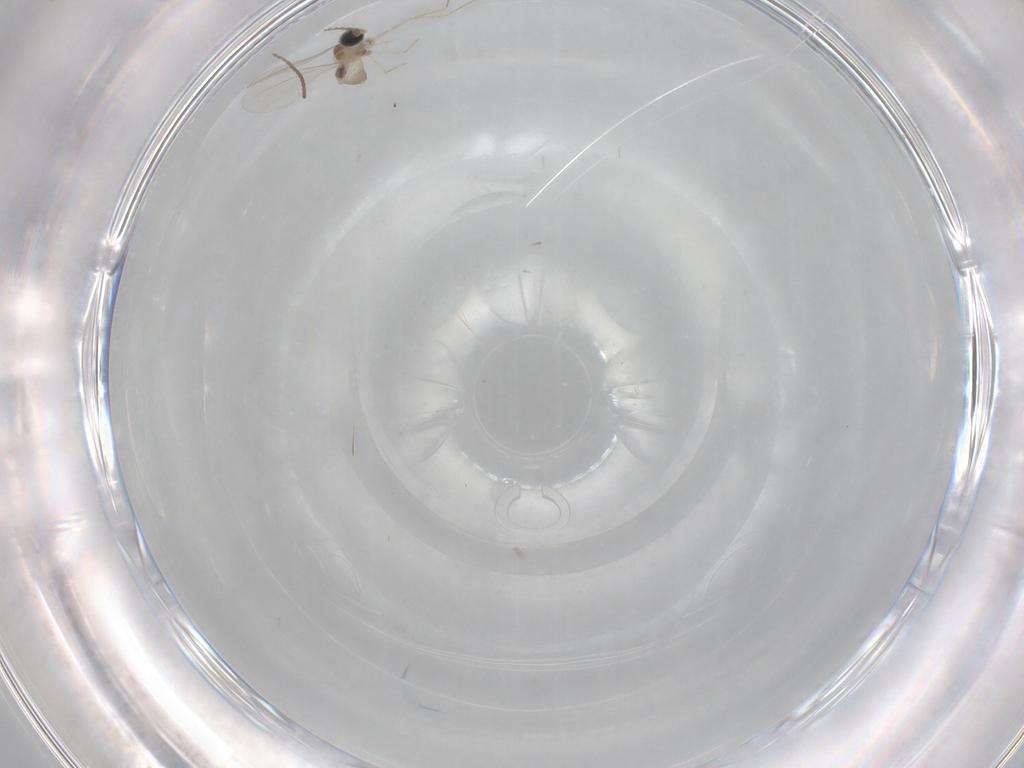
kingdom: Animalia
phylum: Arthropoda
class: Insecta
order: Diptera
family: Cecidomyiidae
